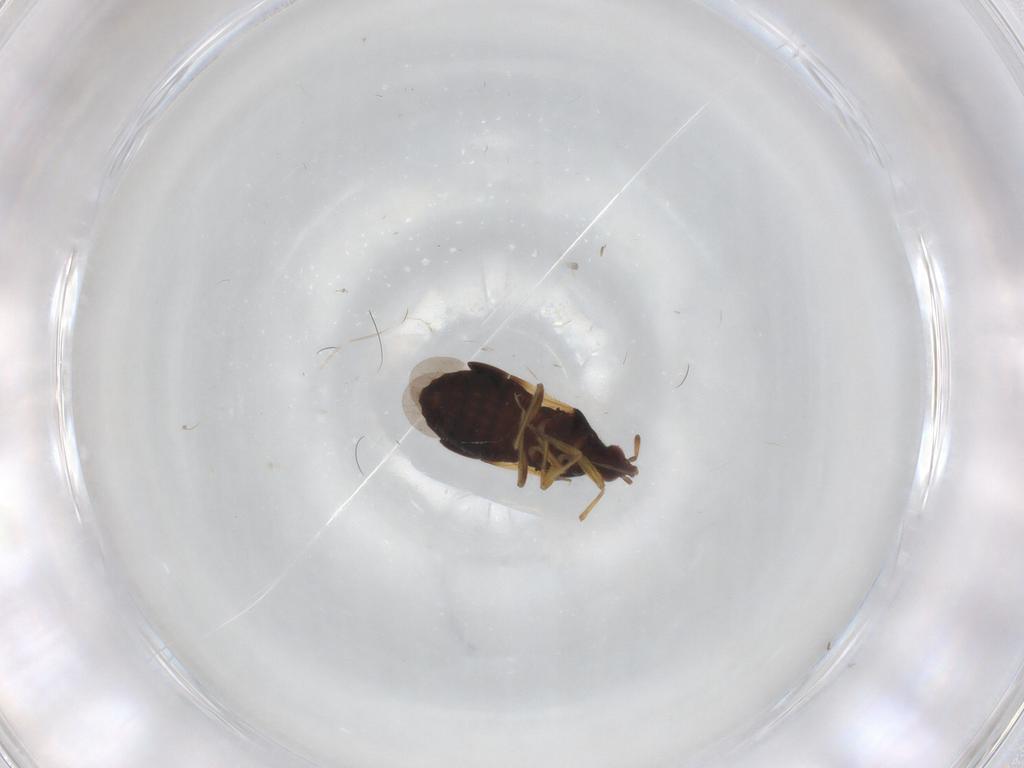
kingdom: Animalia
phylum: Arthropoda
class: Insecta
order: Hemiptera
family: Anthocoridae
